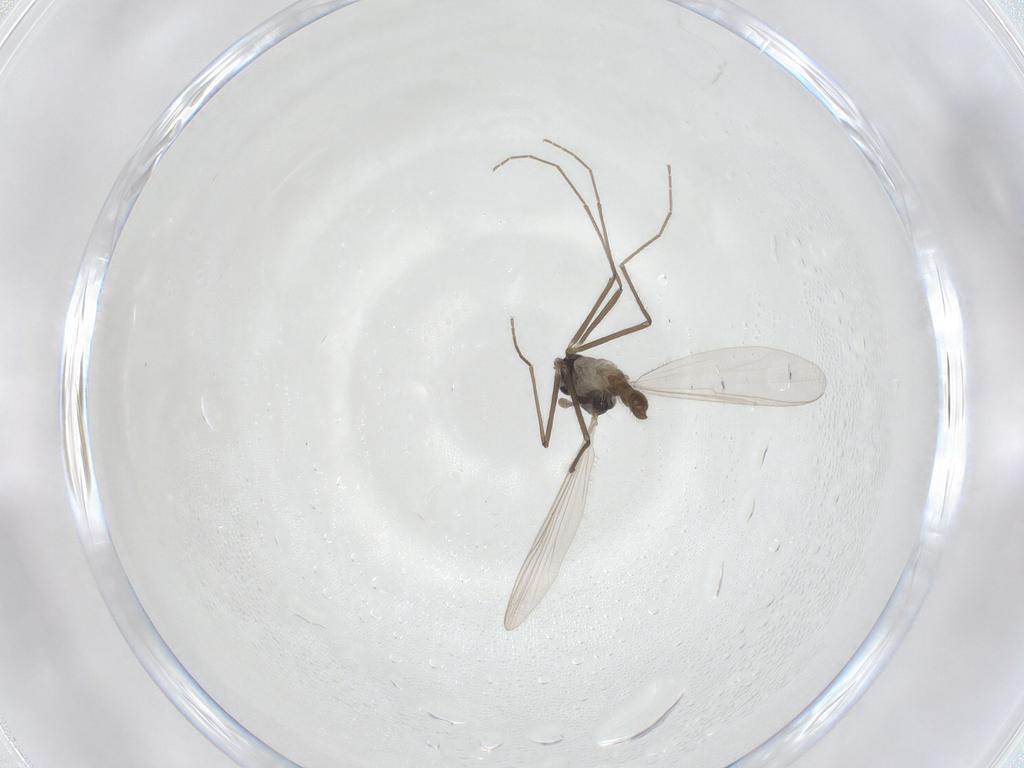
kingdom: Animalia
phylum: Arthropoda
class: Insecta
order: Diptera
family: Chironomidae
